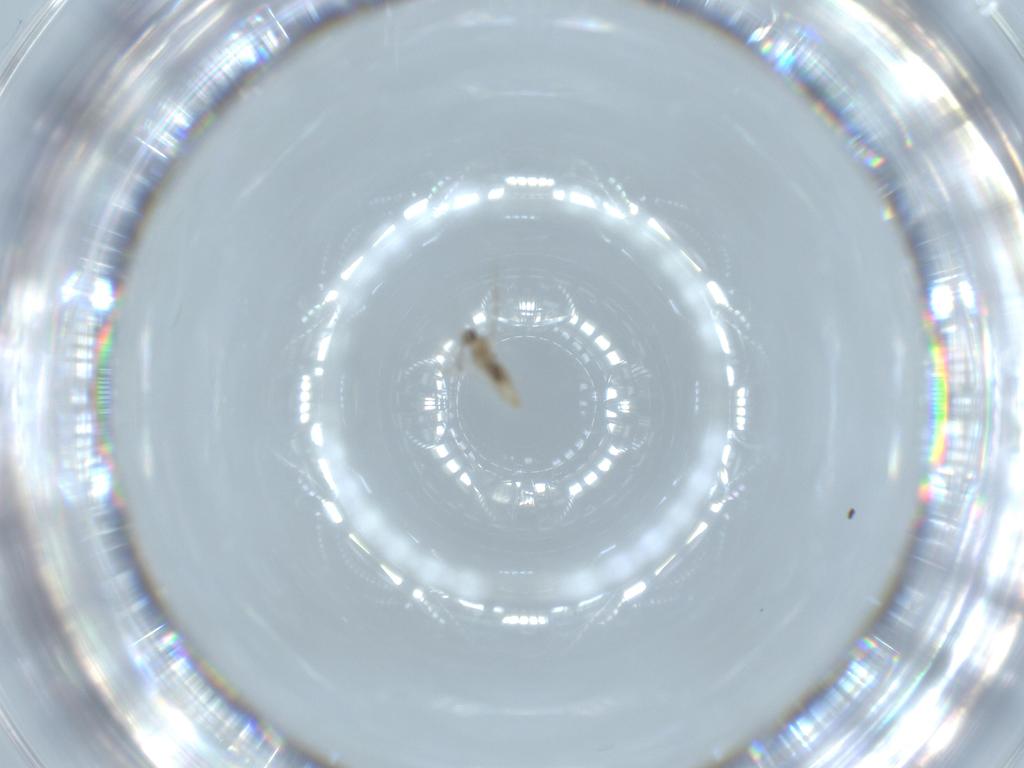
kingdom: Animalia
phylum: Arthropoda
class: Insecta
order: Diptera
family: Cecidomyiidae
